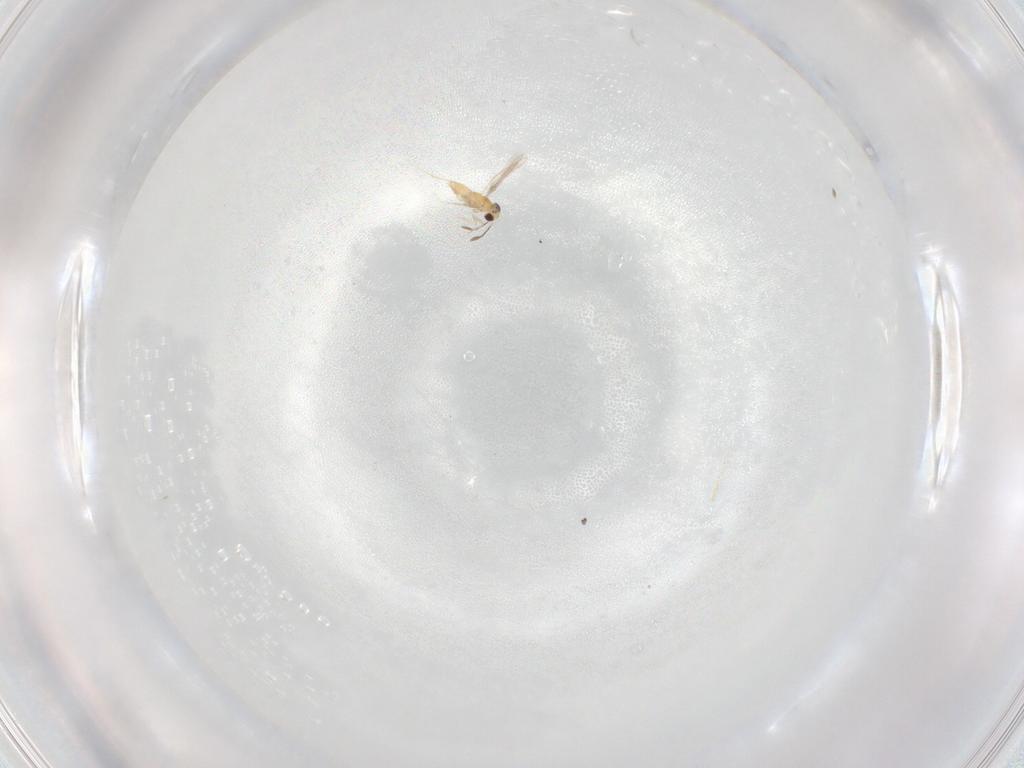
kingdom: Animalia
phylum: Arthropoda
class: Insecta
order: Hymenoptera
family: Mymaridae
